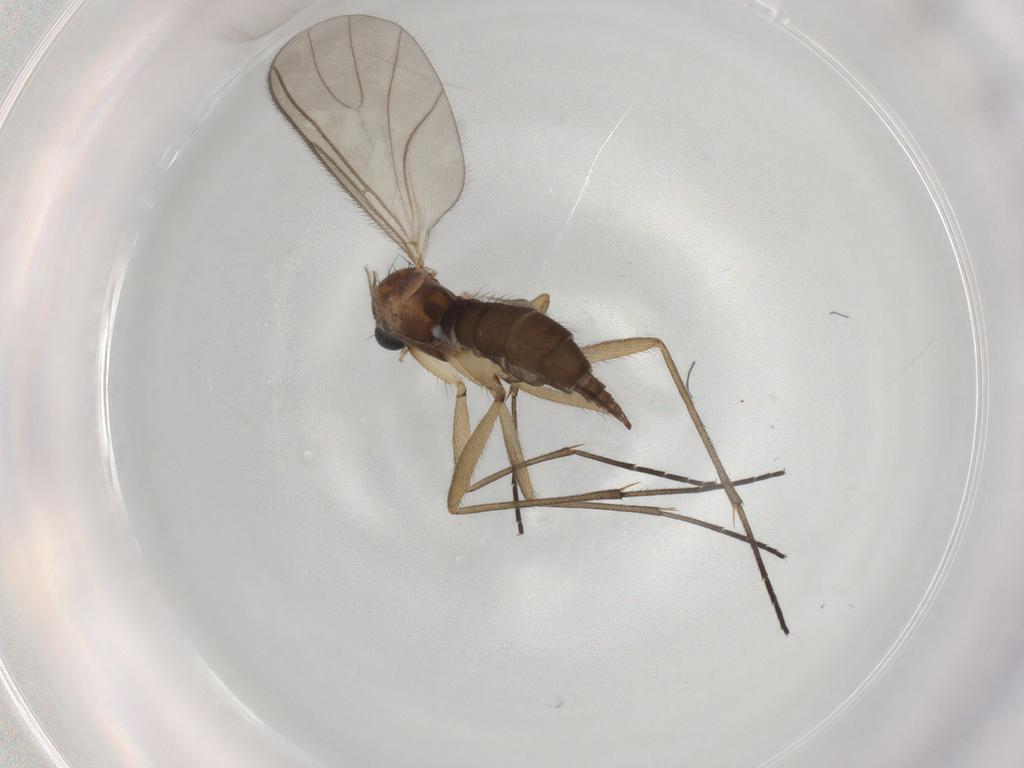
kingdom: Animalia
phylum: Arthropoda
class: Insecta
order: Diptera
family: Sciaridae
